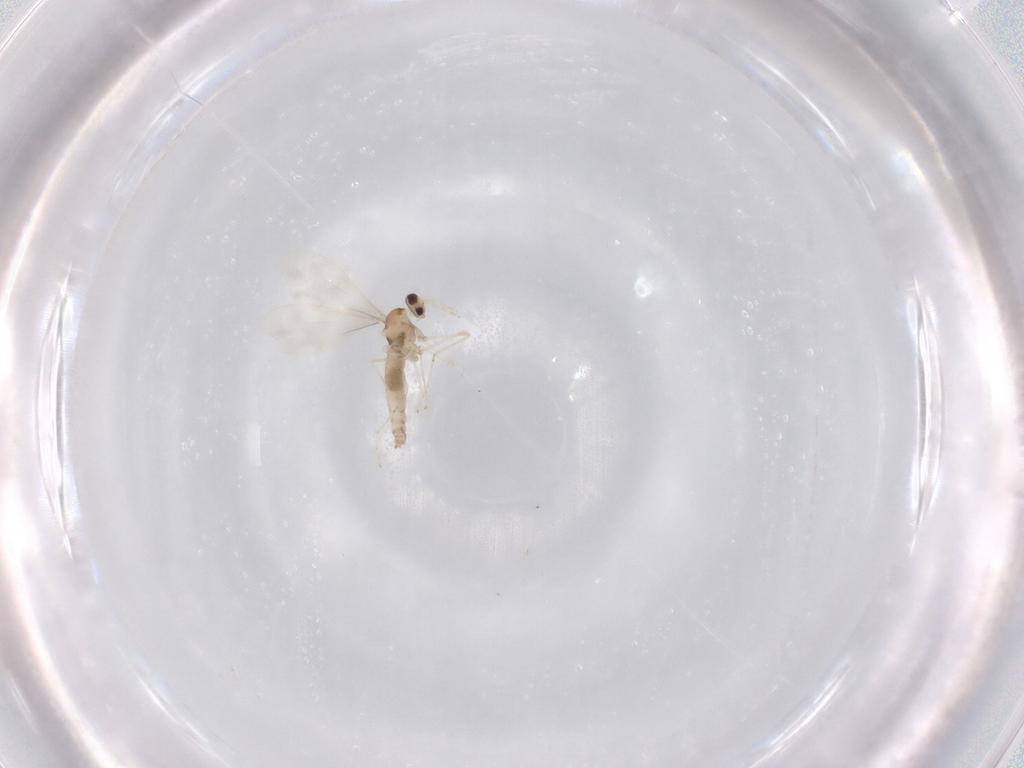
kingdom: Animalia
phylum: Arthropoda
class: Insecta
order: Diptera
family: Cecidomyiidae
